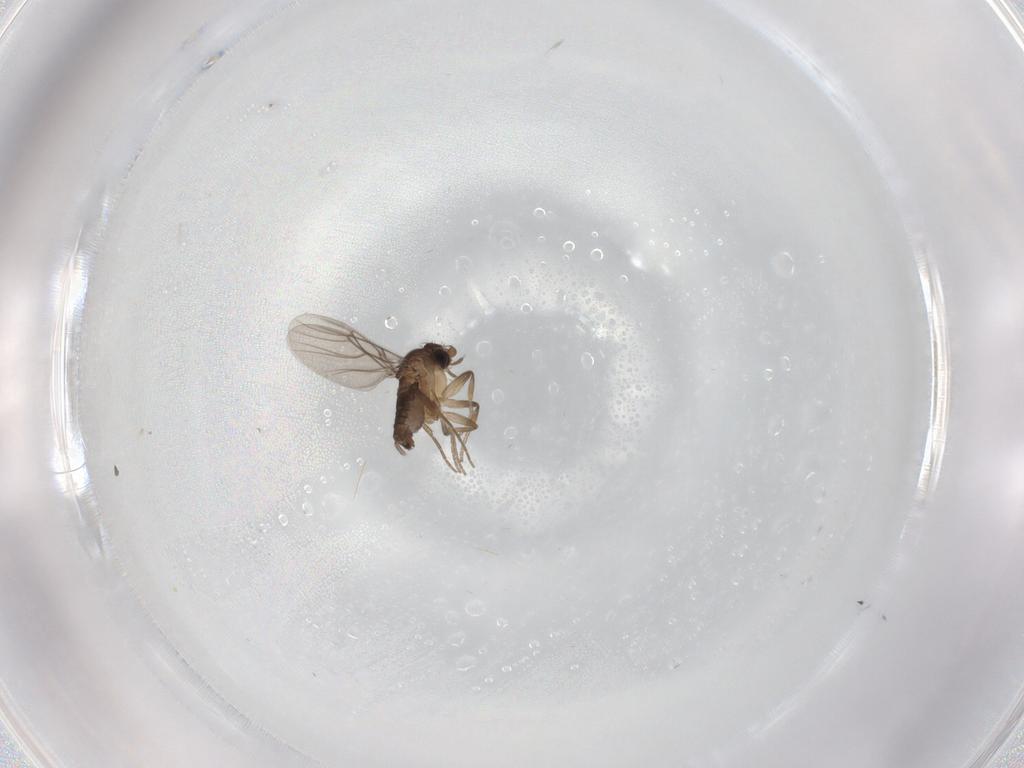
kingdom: Animalia
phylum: Arthropoda
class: Insecta
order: Diptera
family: Phoridae
